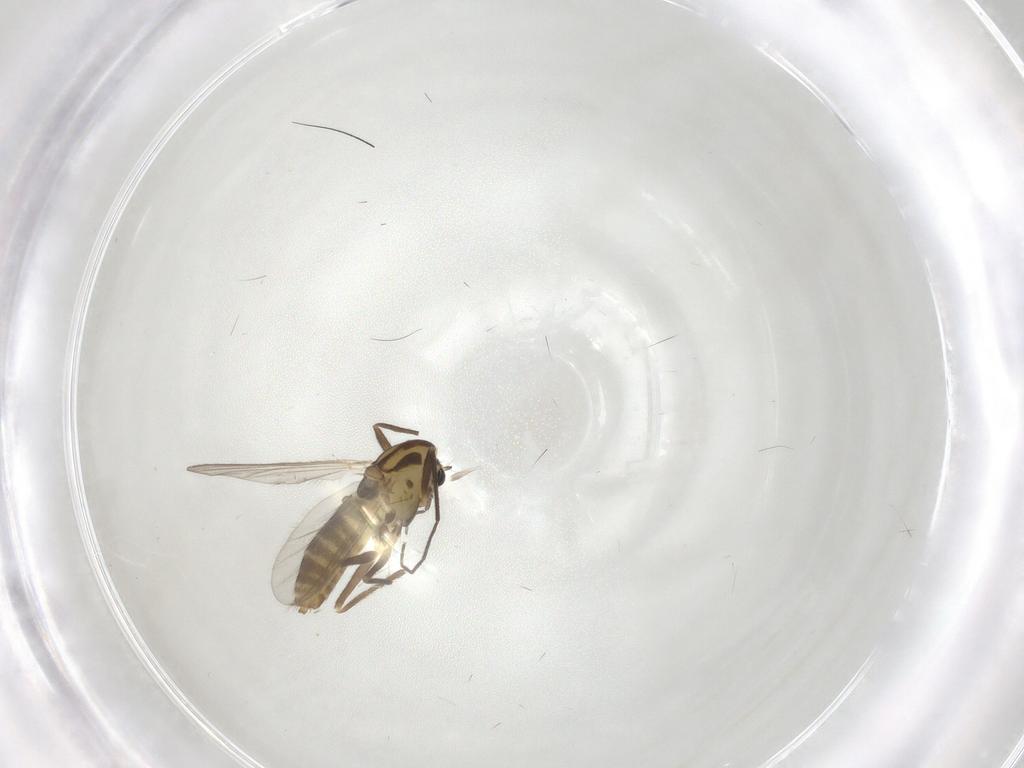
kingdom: Animalia
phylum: Arthropoda
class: Insecta
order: Diptera
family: Chironomidae
